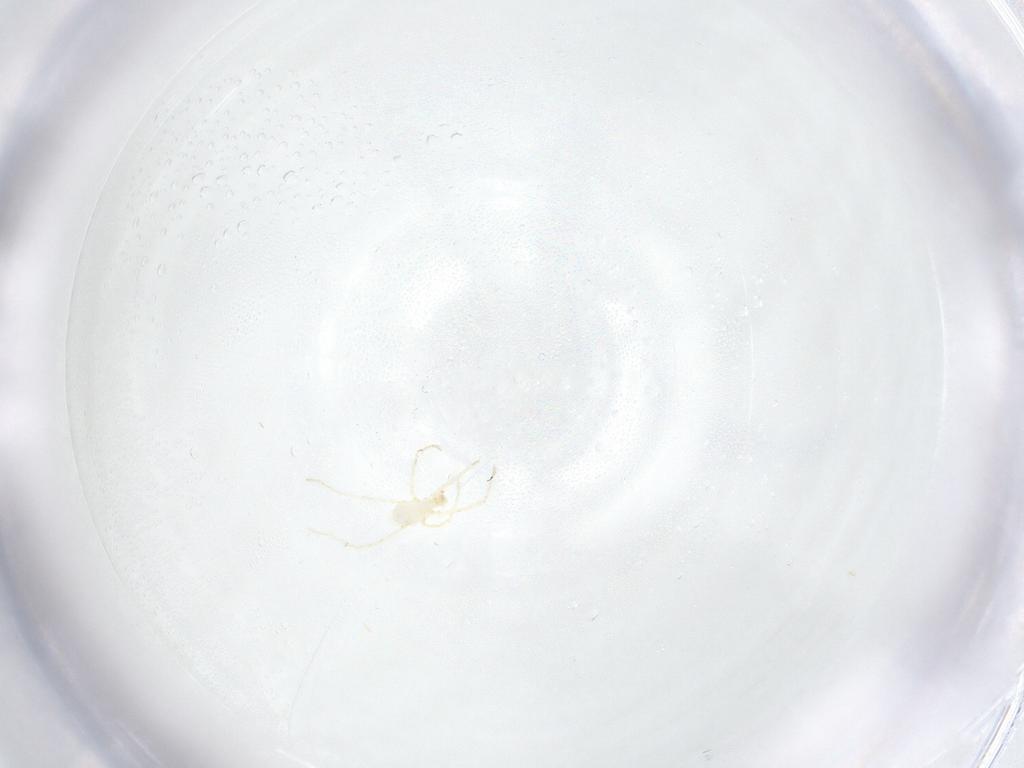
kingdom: Animalia
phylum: Arthropoda
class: Arachnida
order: Trombidiformes
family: Erythraeidae
